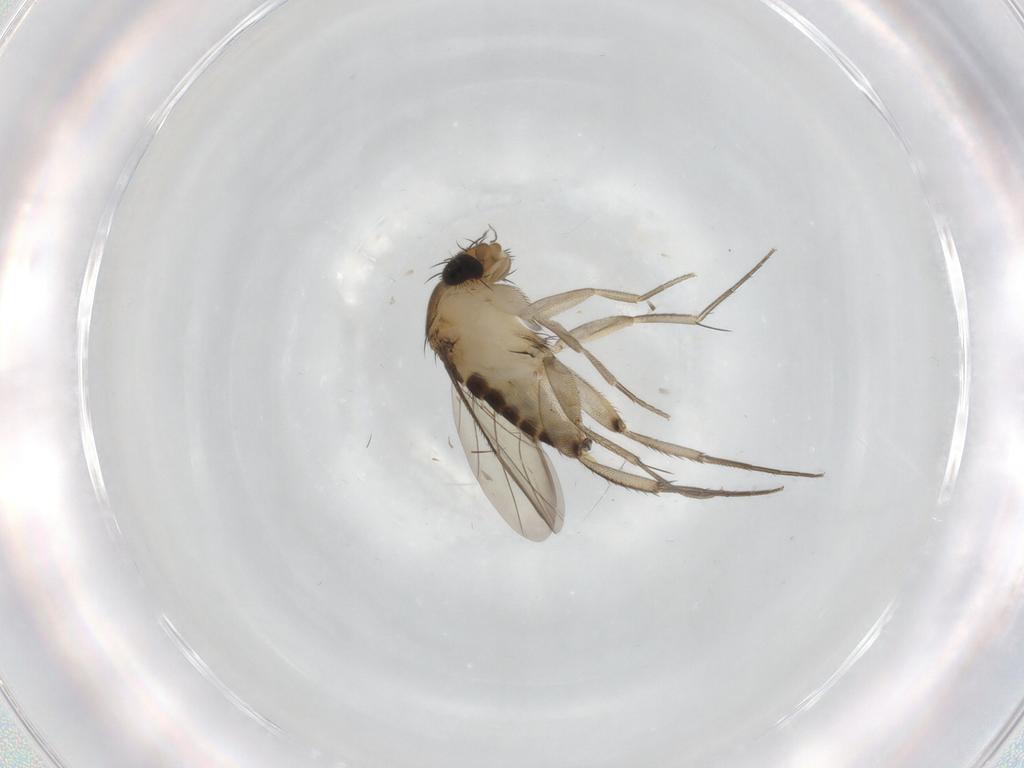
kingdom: Animalia
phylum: Arthropoda
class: Insecta
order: Diptera
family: Phoridae
